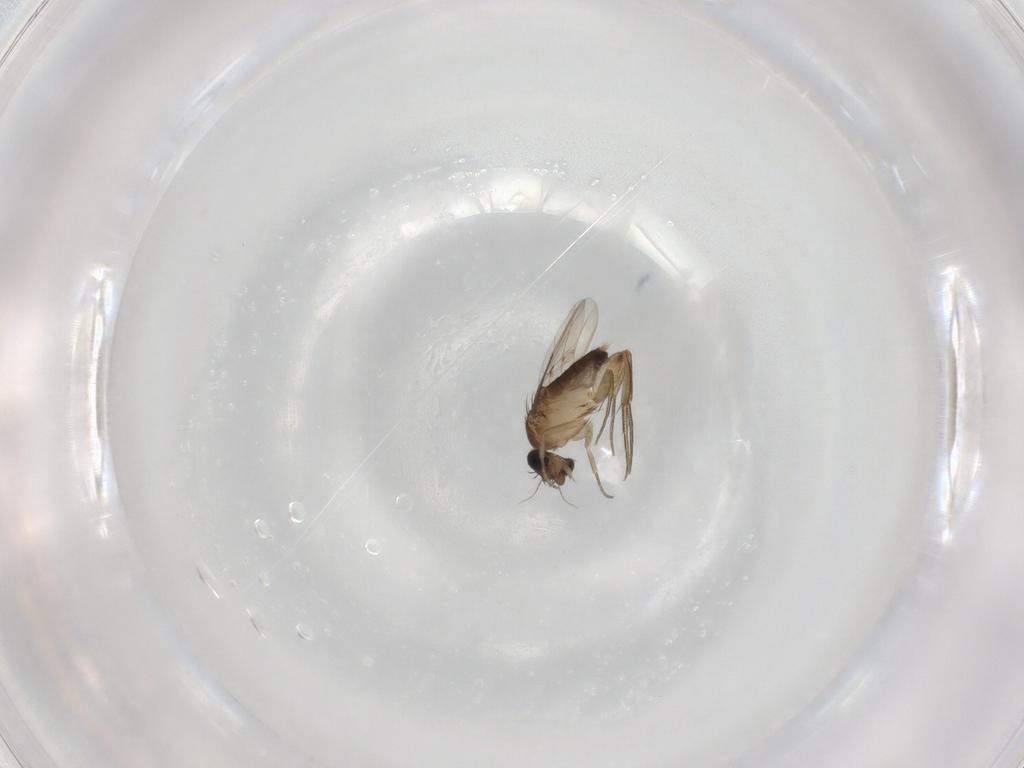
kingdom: Animalia
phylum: Arthropoda
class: Insecta
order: Diptera
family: Phoridae
